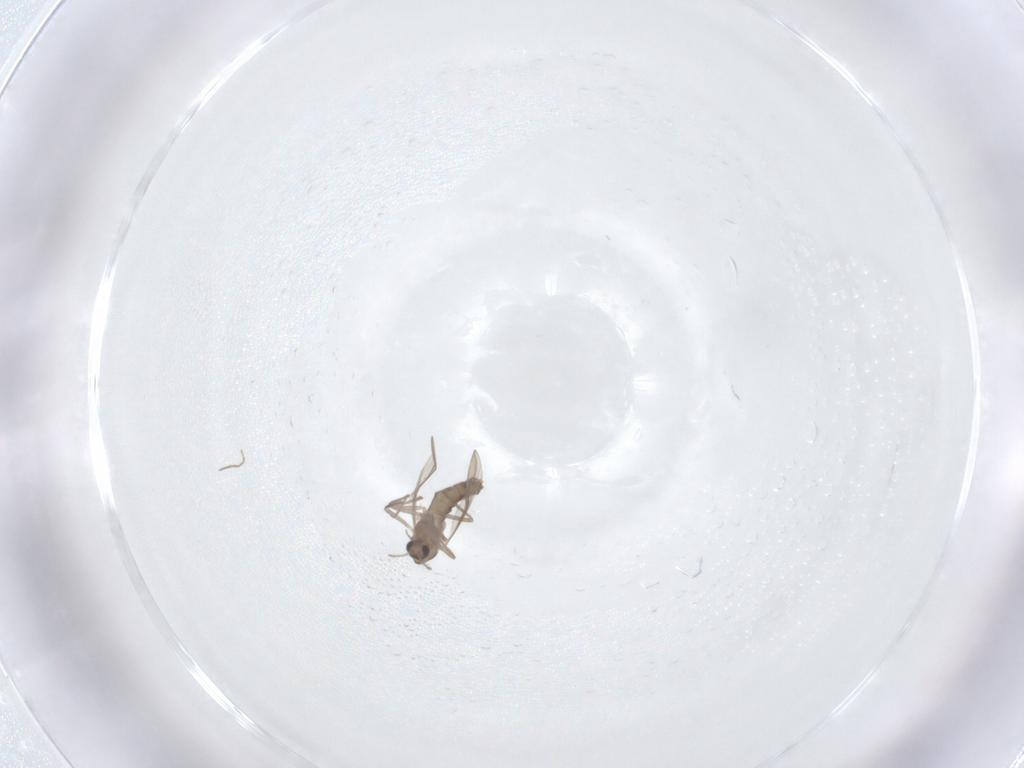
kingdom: Animalia
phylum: Arthropoda
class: Insecta
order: Diptera
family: Chironomidae
